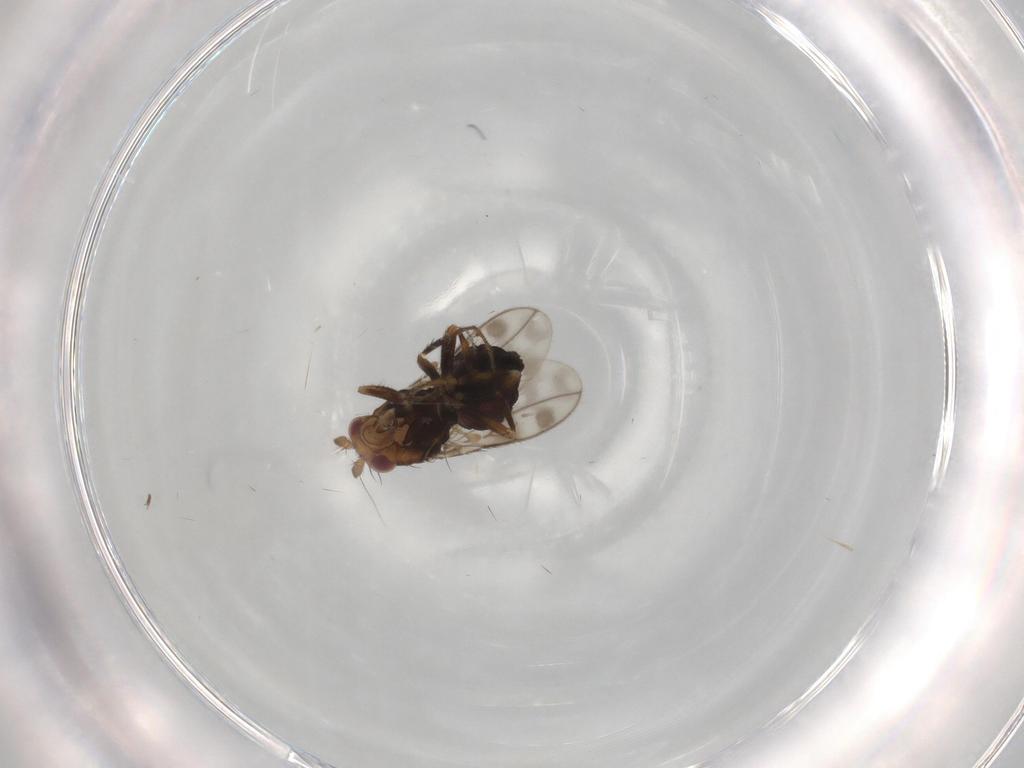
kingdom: Animalia
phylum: Arthropoda
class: Insecta
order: Diptera
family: Sphaeroceridae
